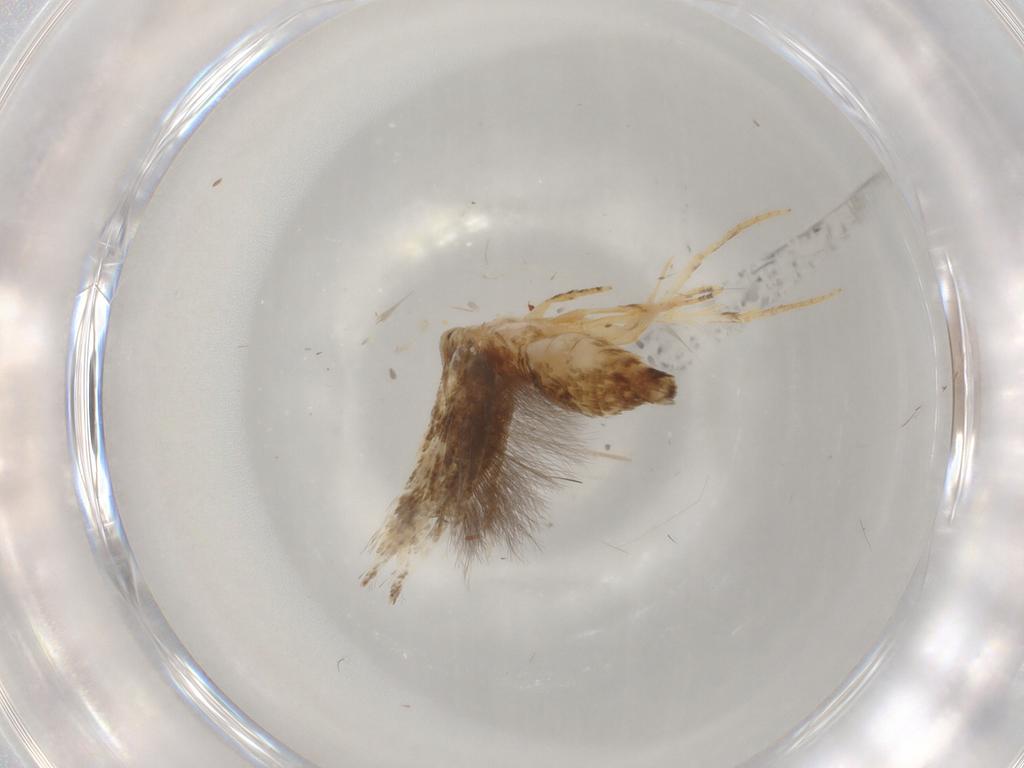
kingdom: Animalia
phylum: Arthropoda
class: Insecta
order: Lepidoptera
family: Elachistidae
